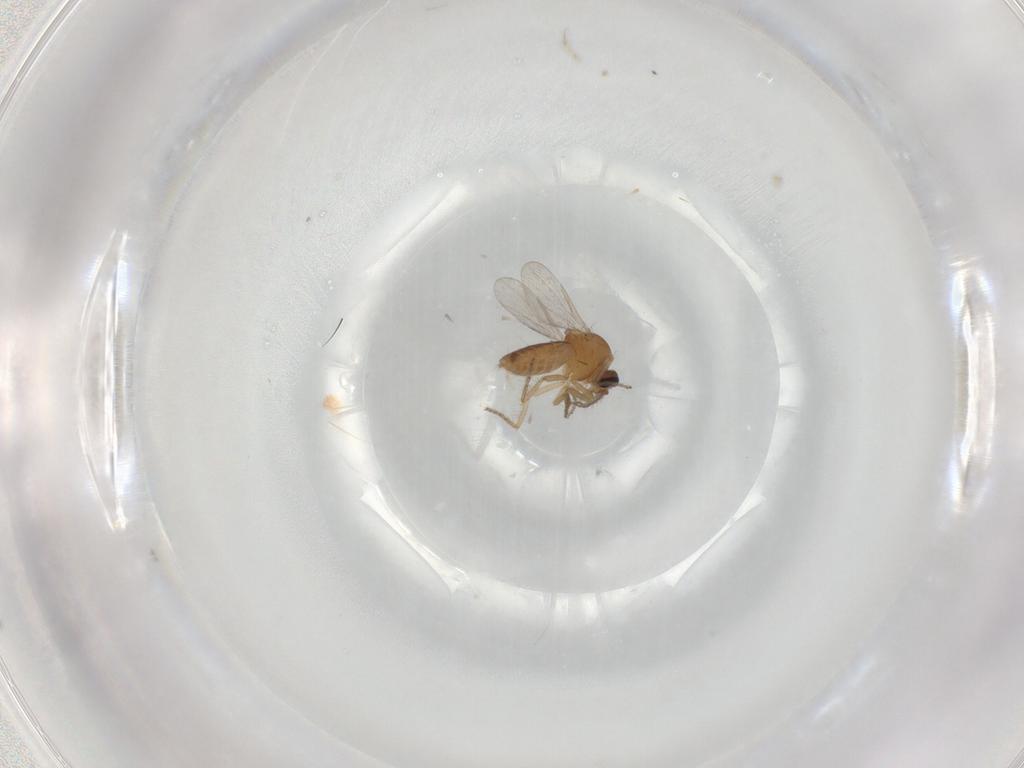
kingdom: Animalia
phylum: Arthropoda
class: Insecta
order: Diptera
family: Ceratopogonidae
